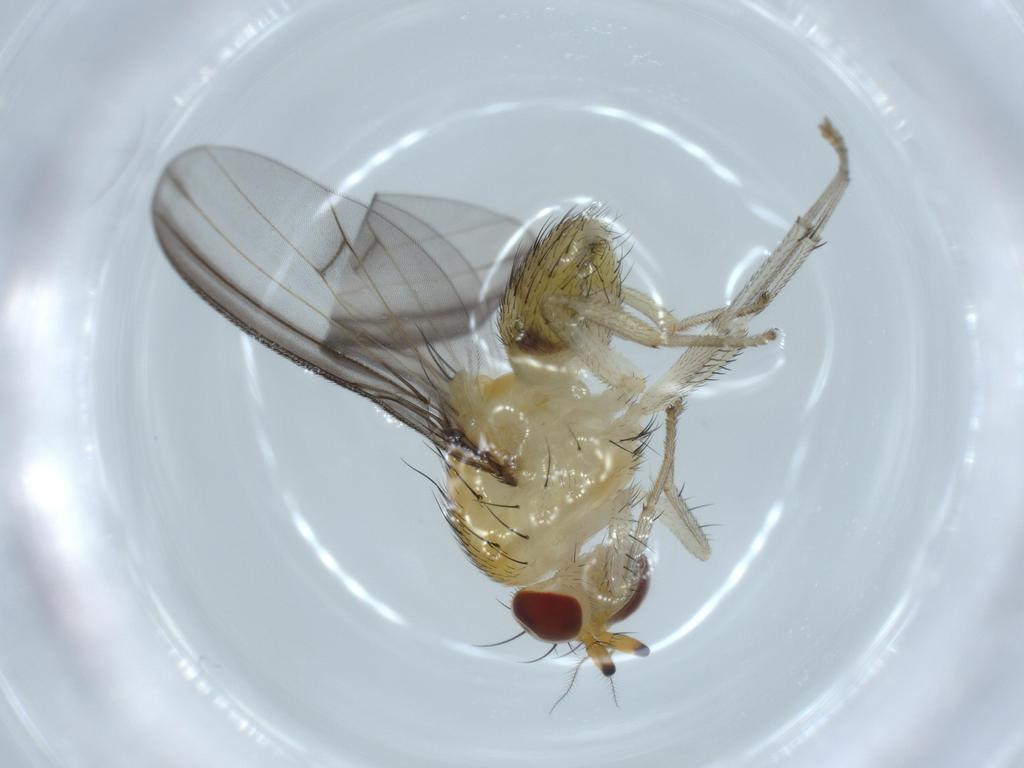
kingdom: Animalia
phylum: Arthropoda
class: Insecta
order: Diptera
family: Lauxaniidae
